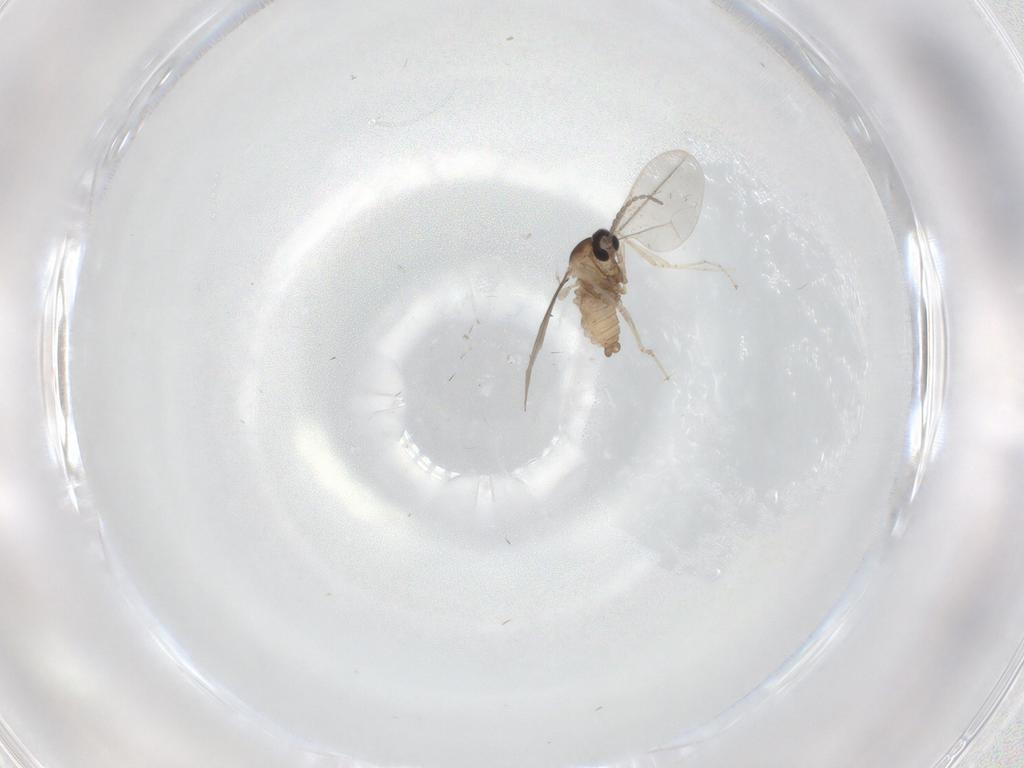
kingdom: Animalia
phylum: Arthropoda
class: Insecta
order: Diptera
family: Cecidomyiidae
